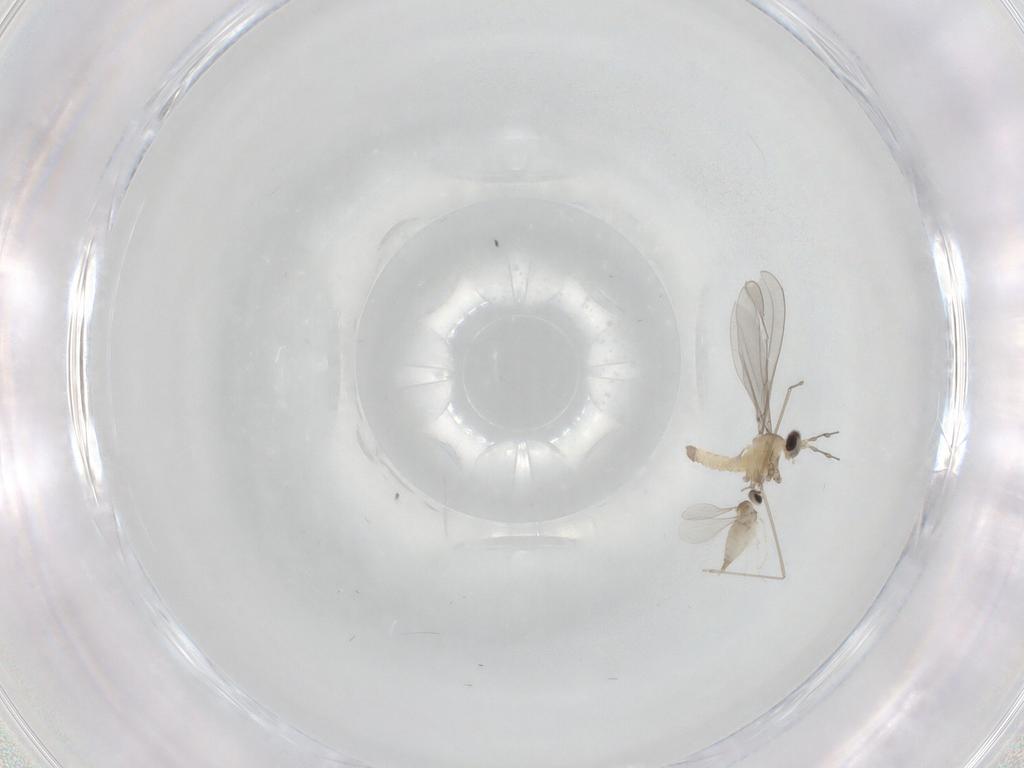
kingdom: Animalia
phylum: Arthropoda
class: Insecta
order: Diptera
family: Cecidomyiidae
